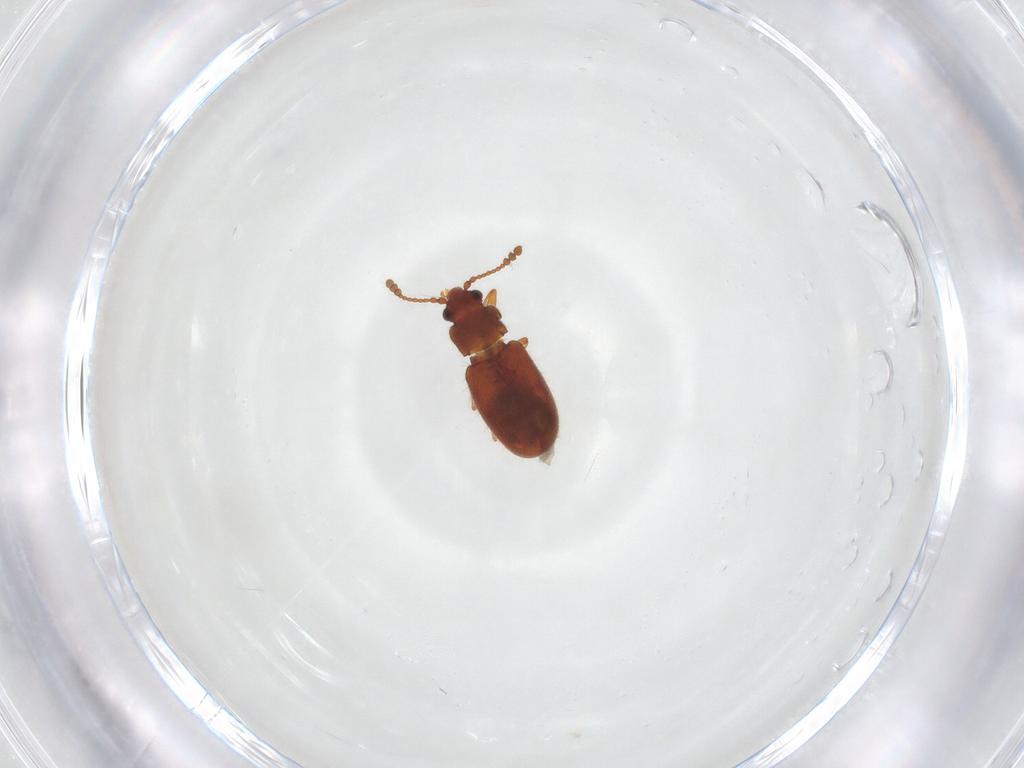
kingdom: Animalia
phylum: Arthropoda
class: Insecta
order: Coleoptera
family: Cryptophagidae
